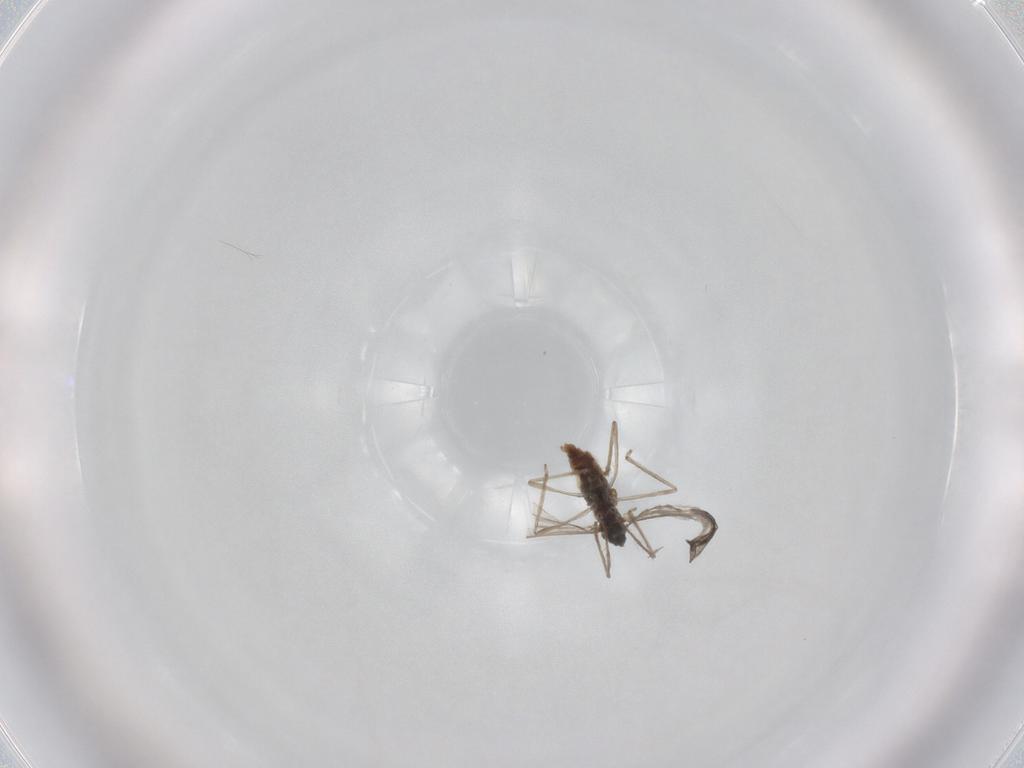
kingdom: Animalia
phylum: Arthropoda
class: Insecta
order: Diptera
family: Cecidomyiidae
